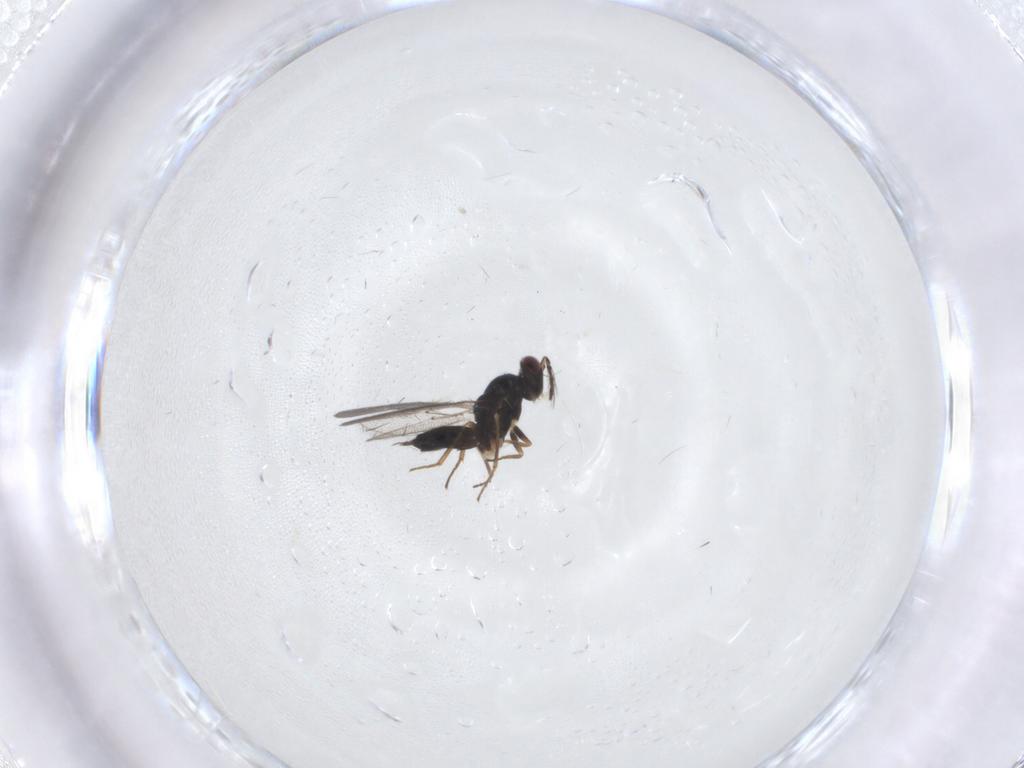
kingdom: Animalia
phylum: Arthropoda
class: Insecta
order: Hymenoptera
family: Eulophidae
